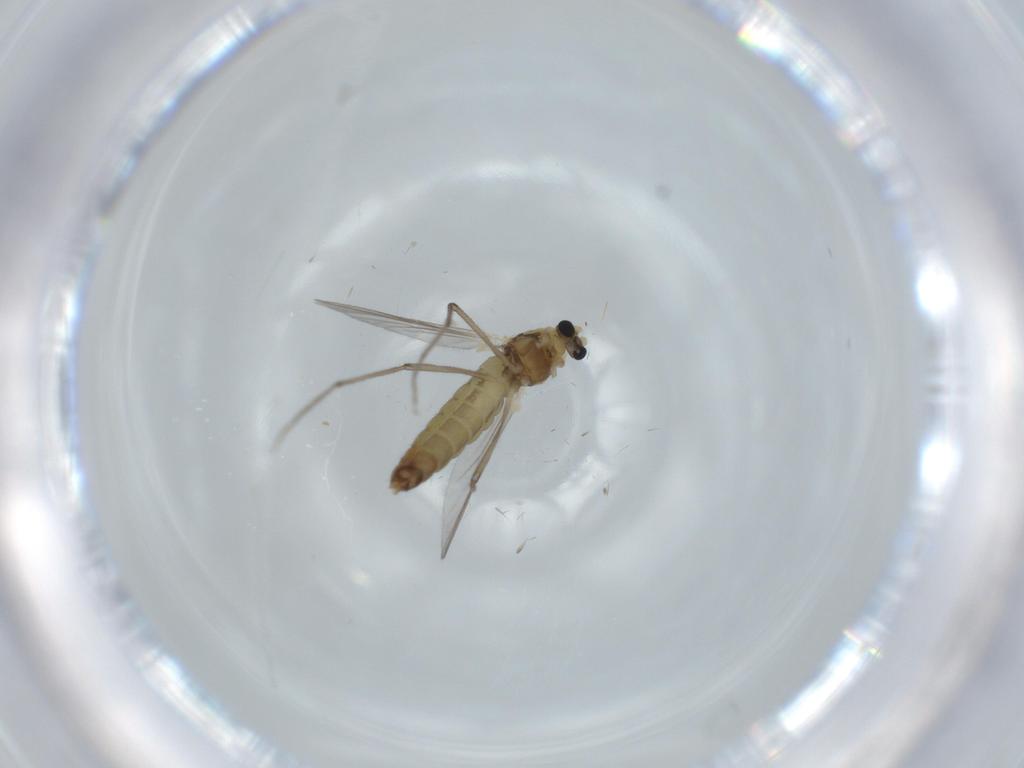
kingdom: Animalia
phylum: Arthropoda
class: Insecta
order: Diptera
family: Chironomidae
